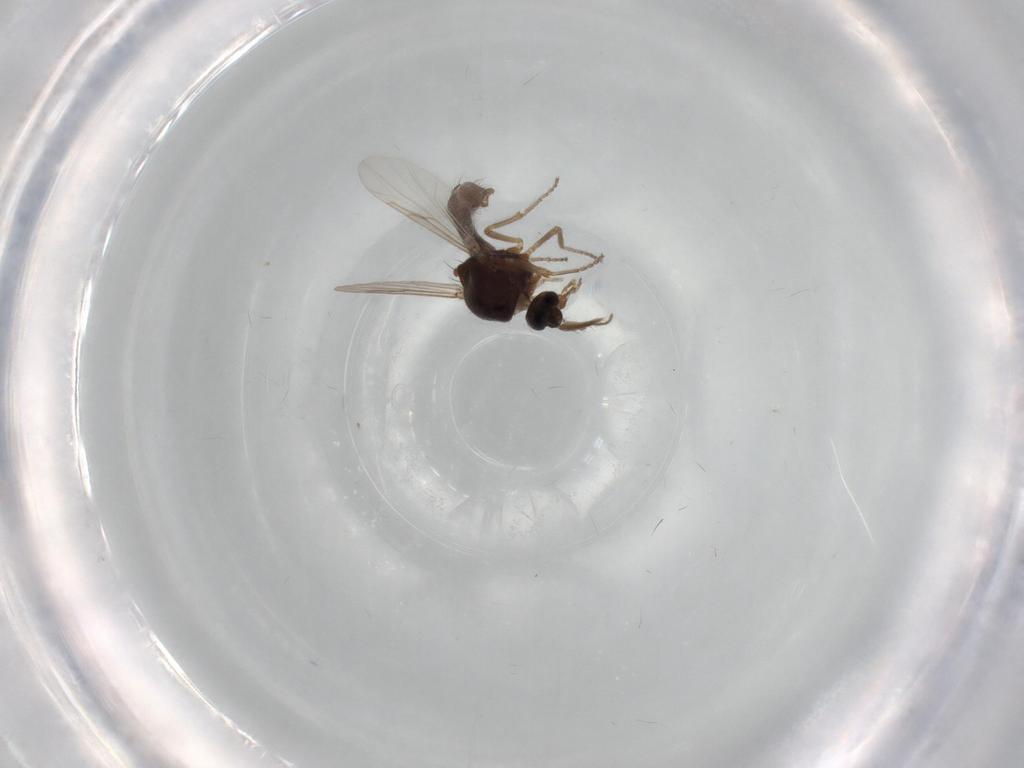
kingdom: Animalia
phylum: Arthropoda
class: Insecta
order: Diptera
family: Ceratopogonidae
